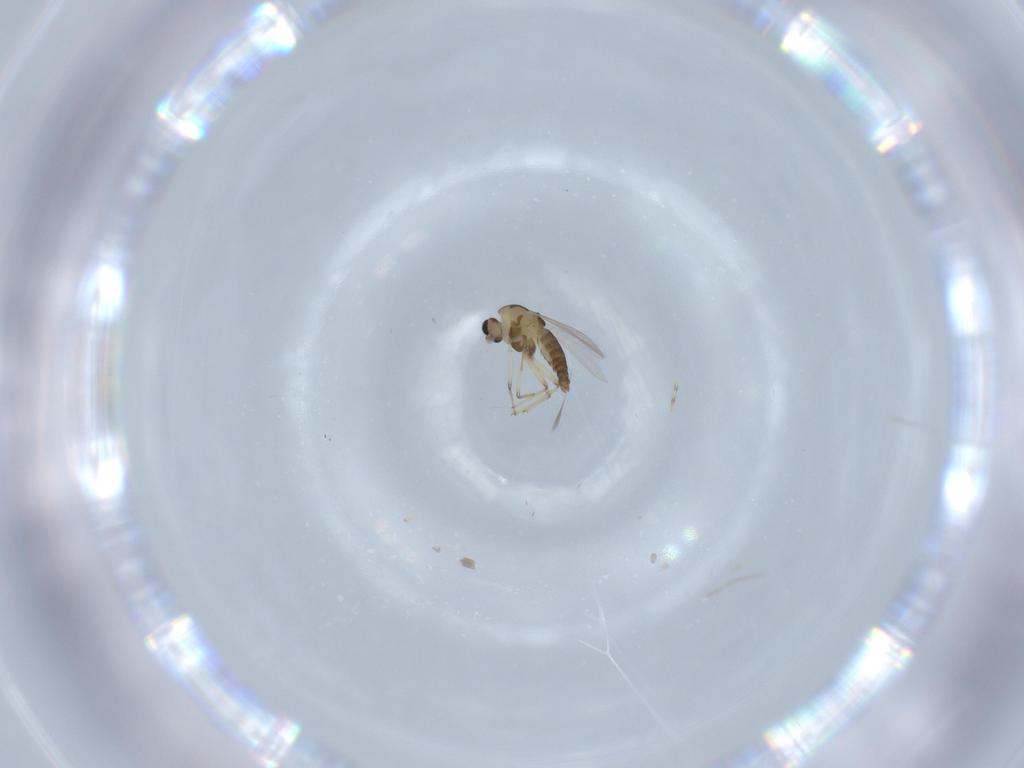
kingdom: Animalia
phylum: Arthropoda
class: Insecta
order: Diptera
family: Chironomidae
